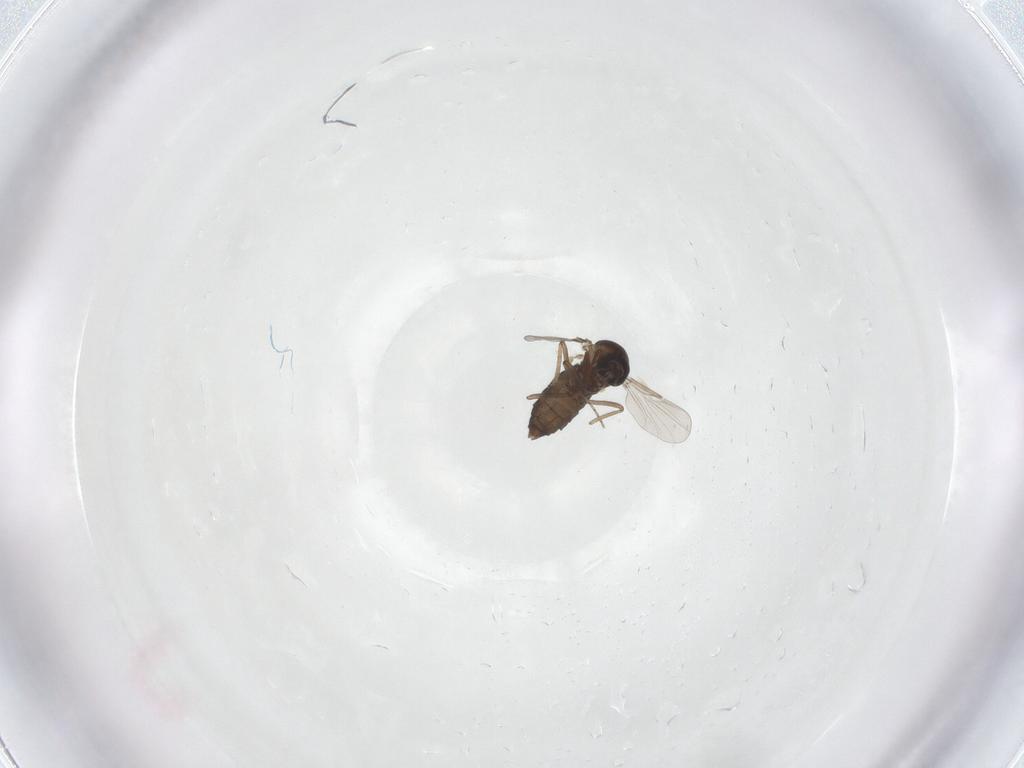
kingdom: Animalia
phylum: Arthropoda
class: Insecta
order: Diptera
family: Ceratopogonidae
